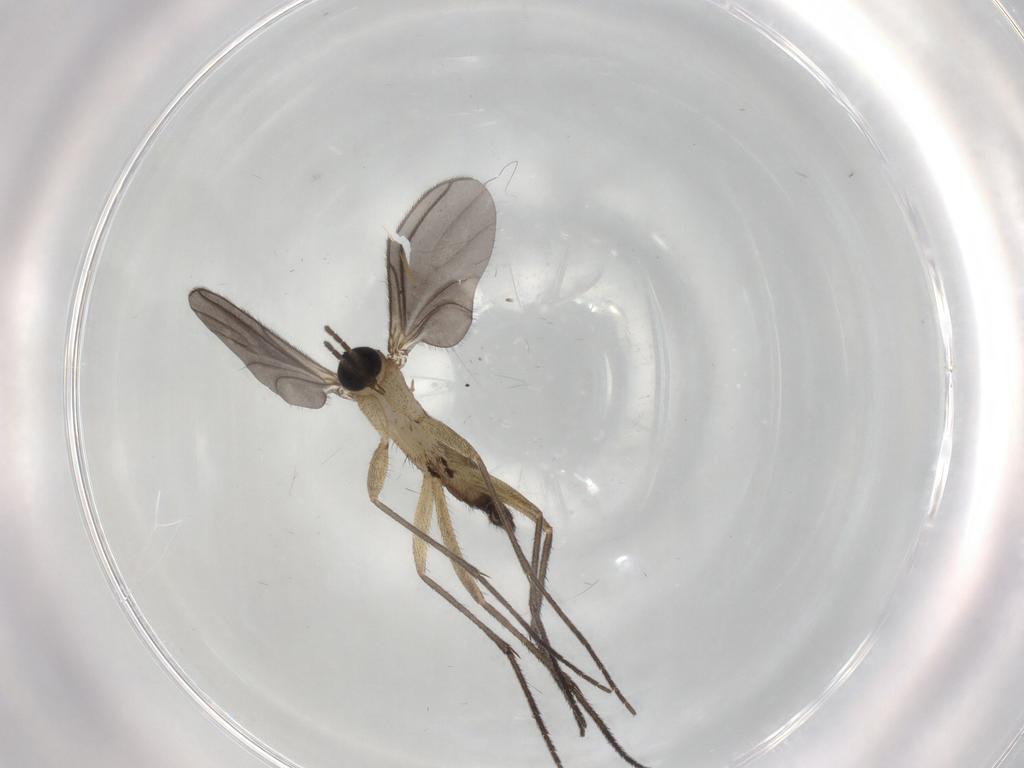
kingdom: Animalia
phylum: Arthropoda
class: Insecta
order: Diptera
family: Sciaridae
